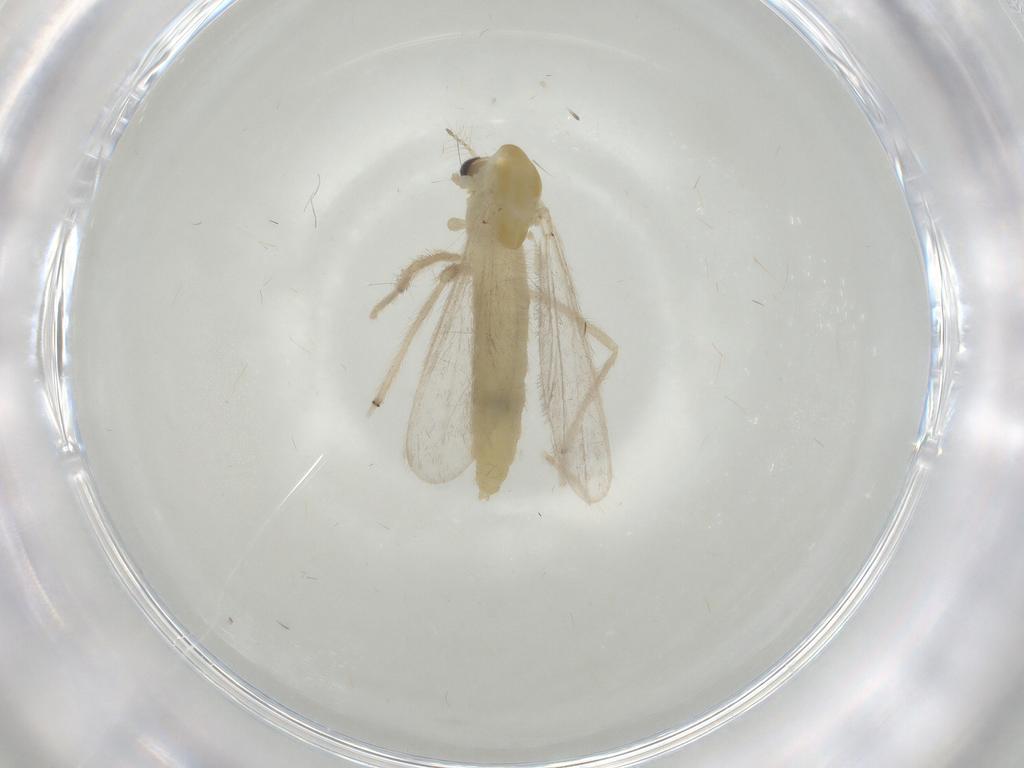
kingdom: Animalia
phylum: Arthropoda
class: Insecta
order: Diptera
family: Chironomidae
